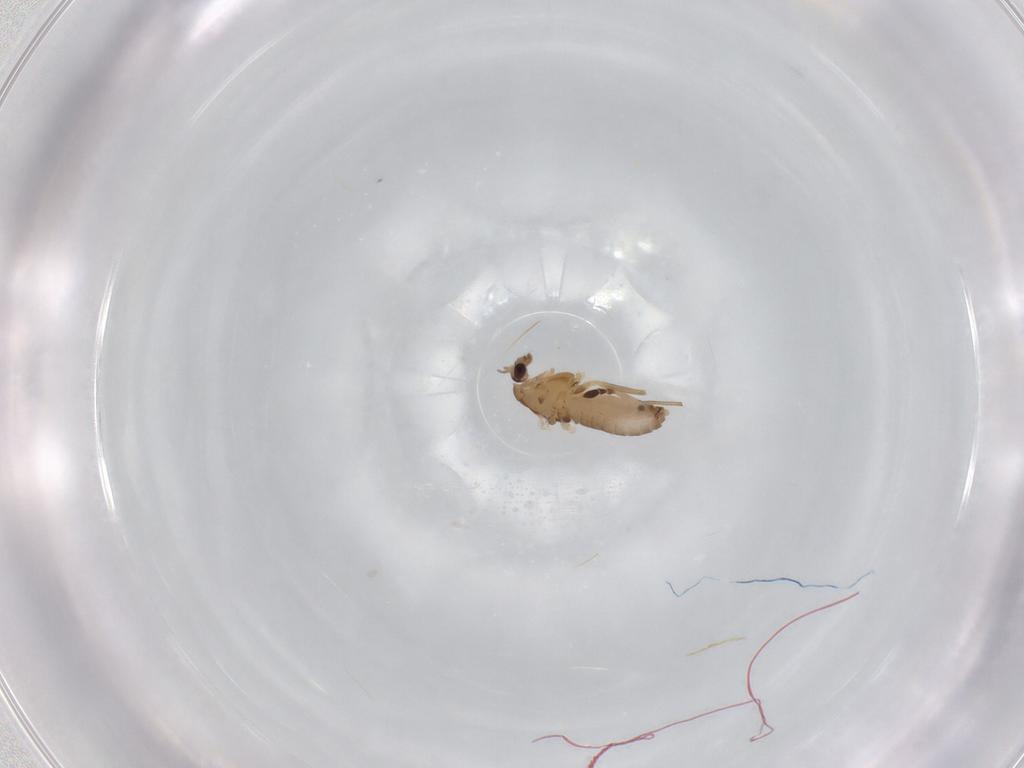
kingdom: Animalia
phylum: Arthropoda
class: Insecta
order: Diptera
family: Chironomidae
